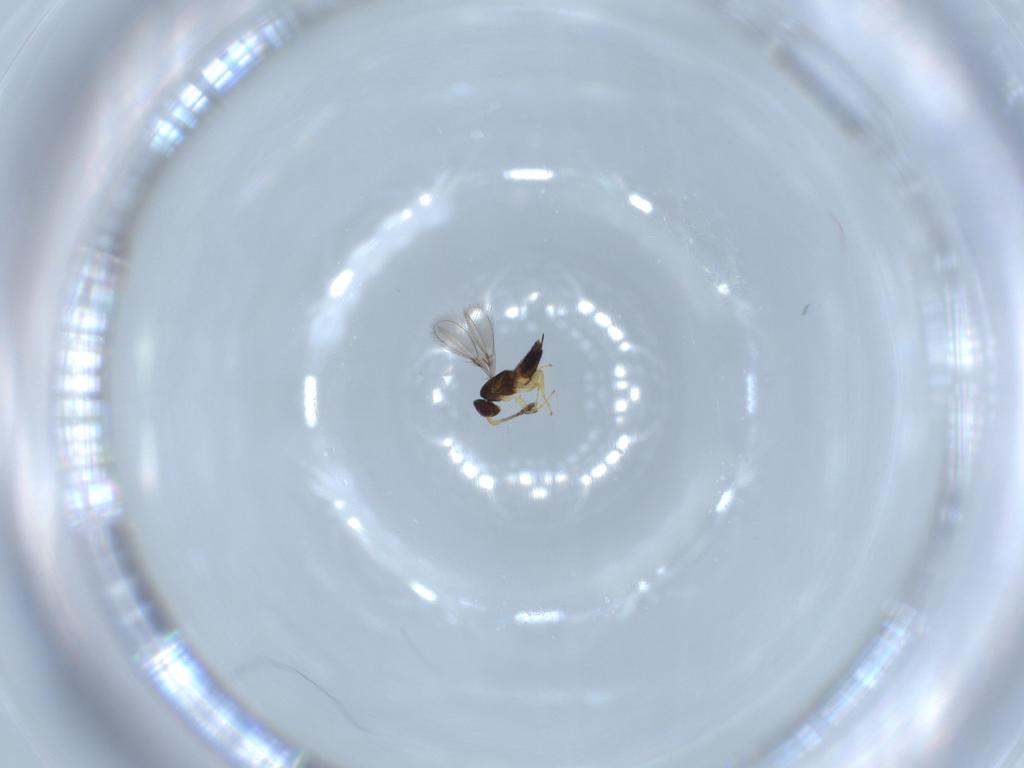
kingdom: Animalia
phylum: Arthropoda
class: Insecta
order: Hymenoptera
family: Mymaridae
